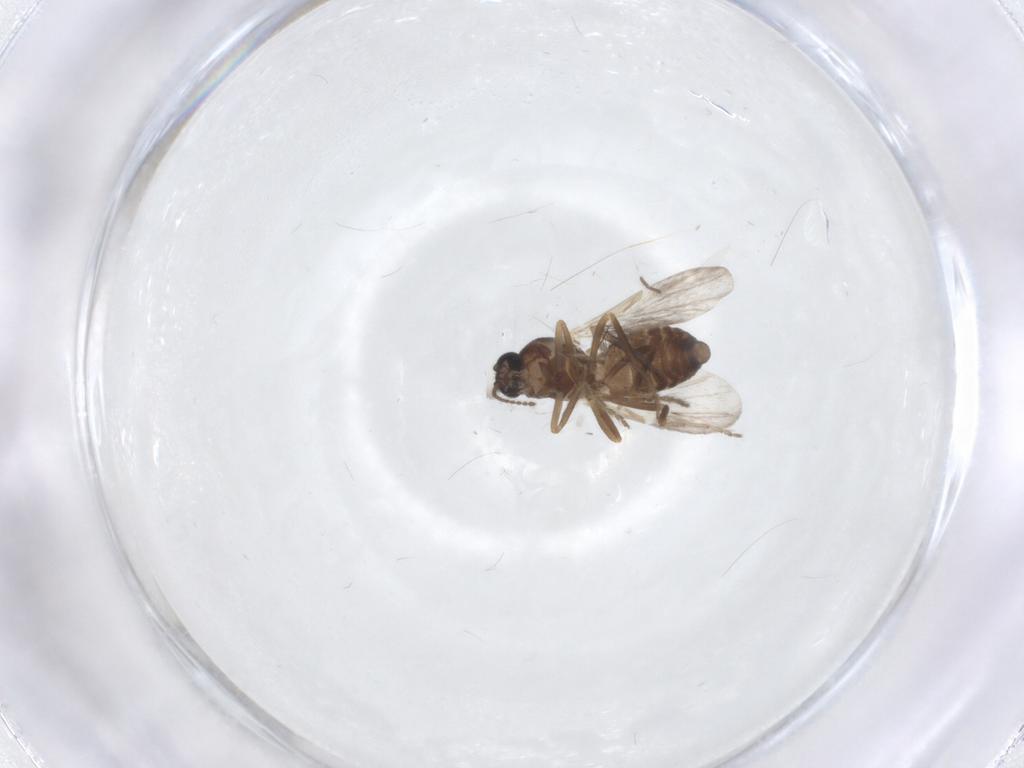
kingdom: Animalia
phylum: Arthropoda
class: Insecta
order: Diptera
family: Ceratopogonidae
